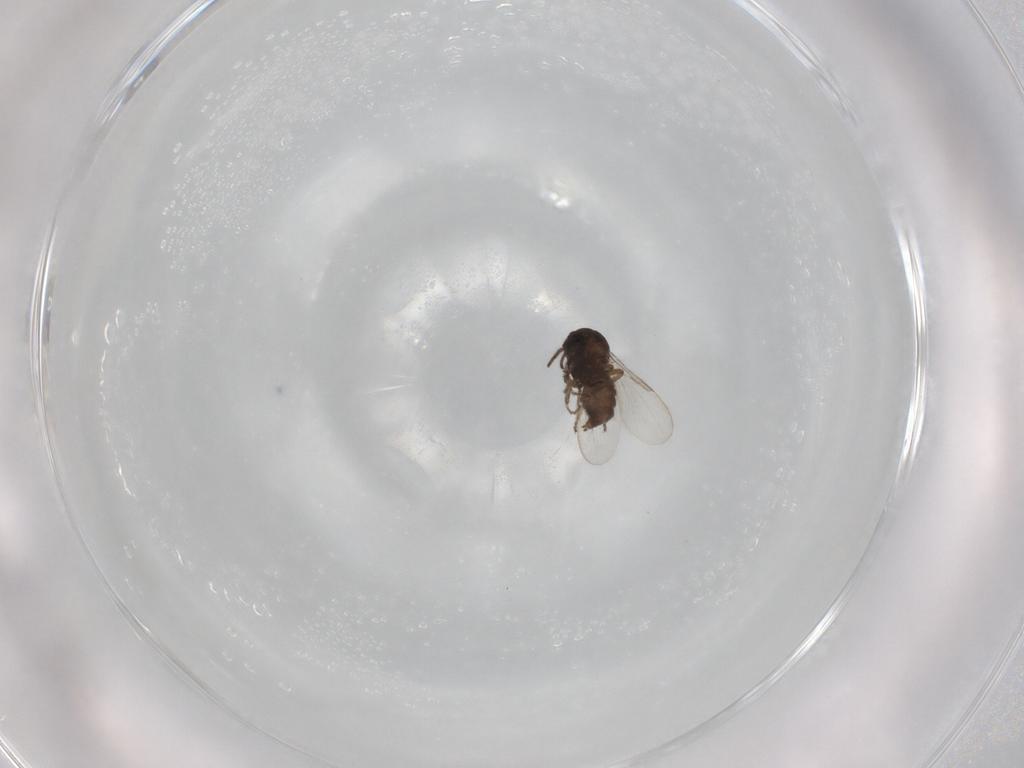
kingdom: Animalia
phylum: Arthropoda
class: Insecta
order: Diptera
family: Ceratopogonidae
